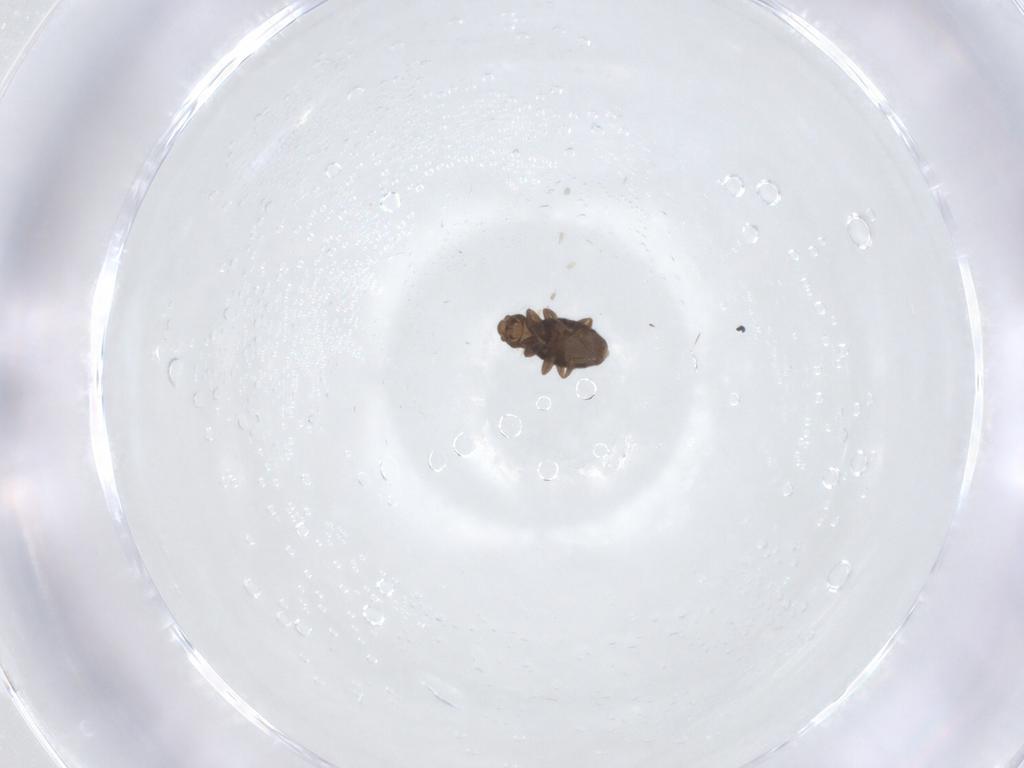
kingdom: Animalia
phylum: Arthropoda
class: Insecta
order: Diptera
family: Phoridae
